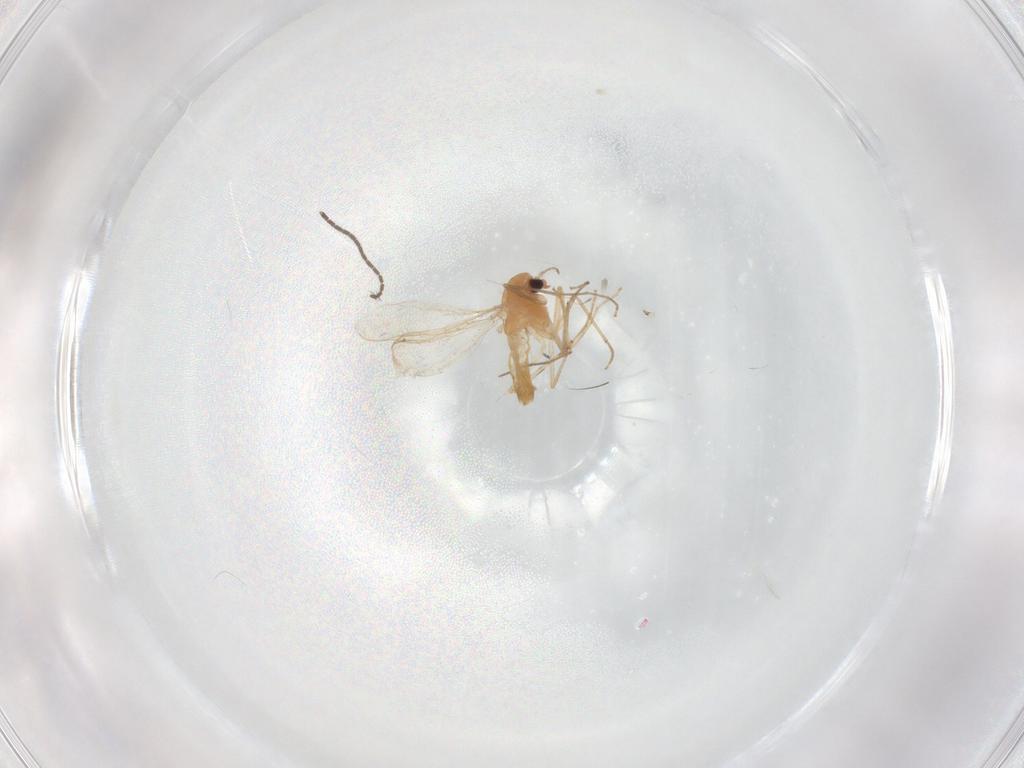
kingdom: Animalia
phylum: Arthropoda
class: Insecta
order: Diptera
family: Chironomidae
